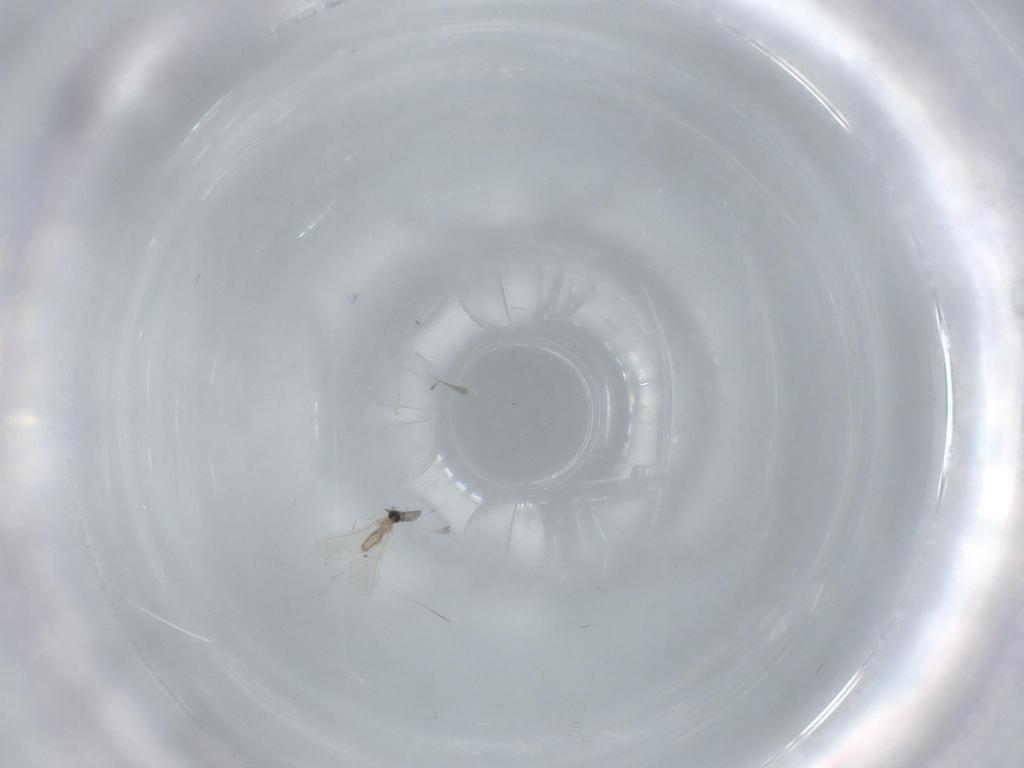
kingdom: Animalia
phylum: Arthropoda
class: Insecta
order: Diptera
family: Cecidomyiidae
